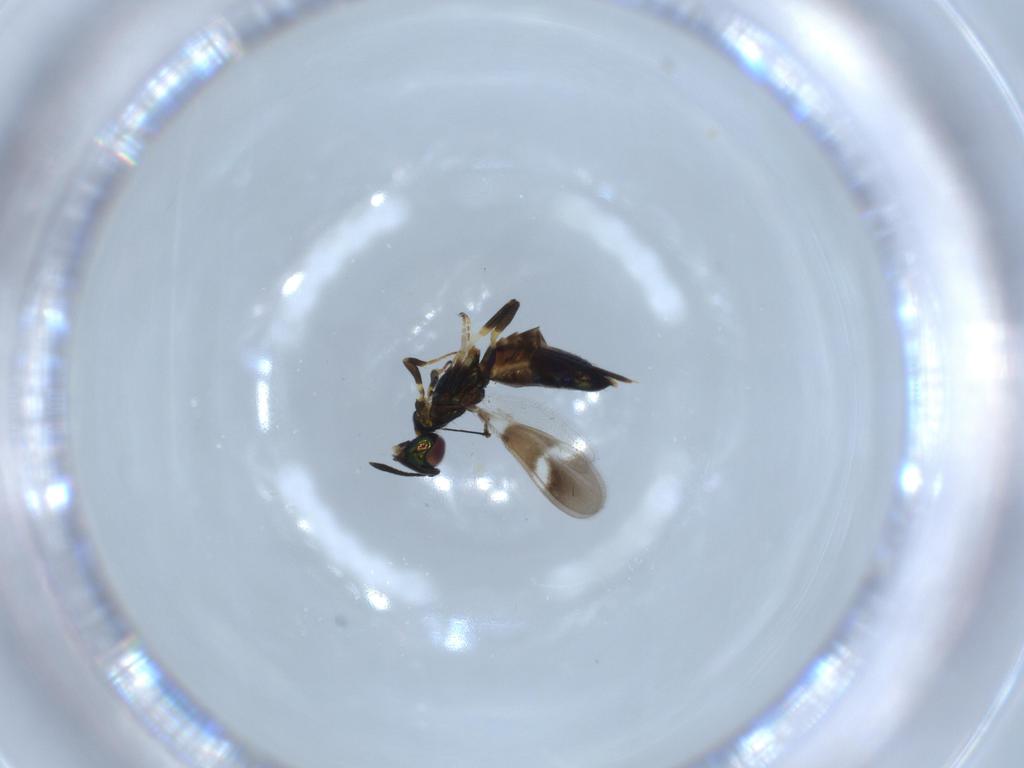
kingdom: Animalia
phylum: Arthropoda
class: Insecta
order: Hymenoptera
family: Eupelmidae
